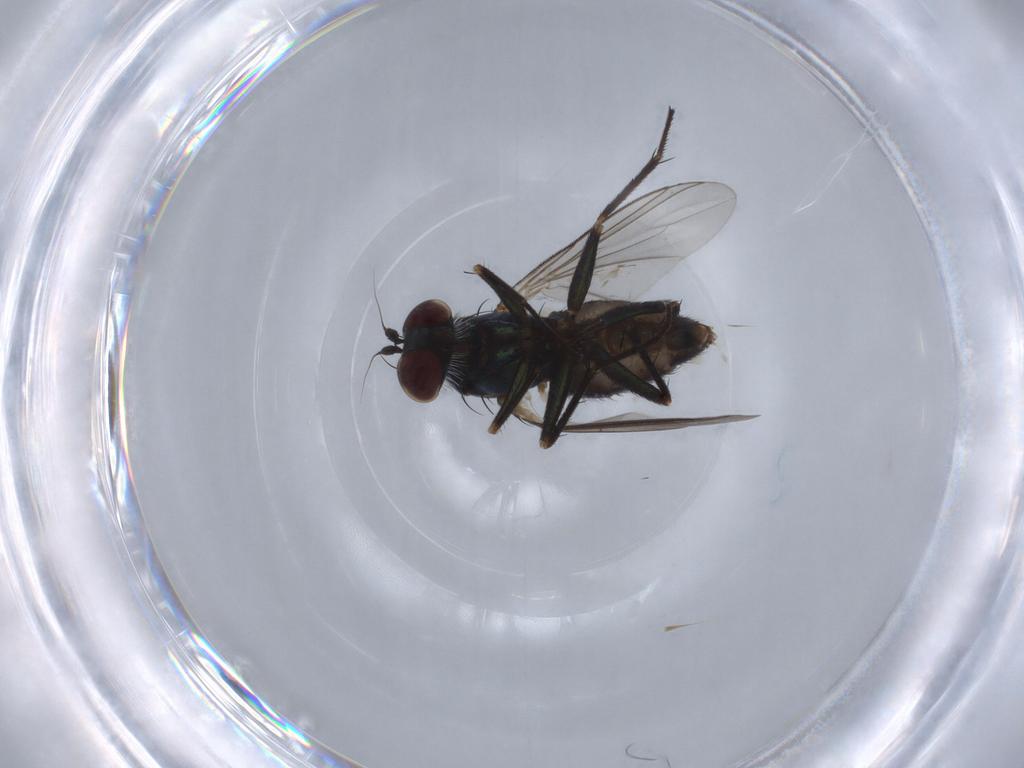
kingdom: Animalia
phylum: Arthropoda
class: Insecta
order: Diptera
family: Dolichopodidae
